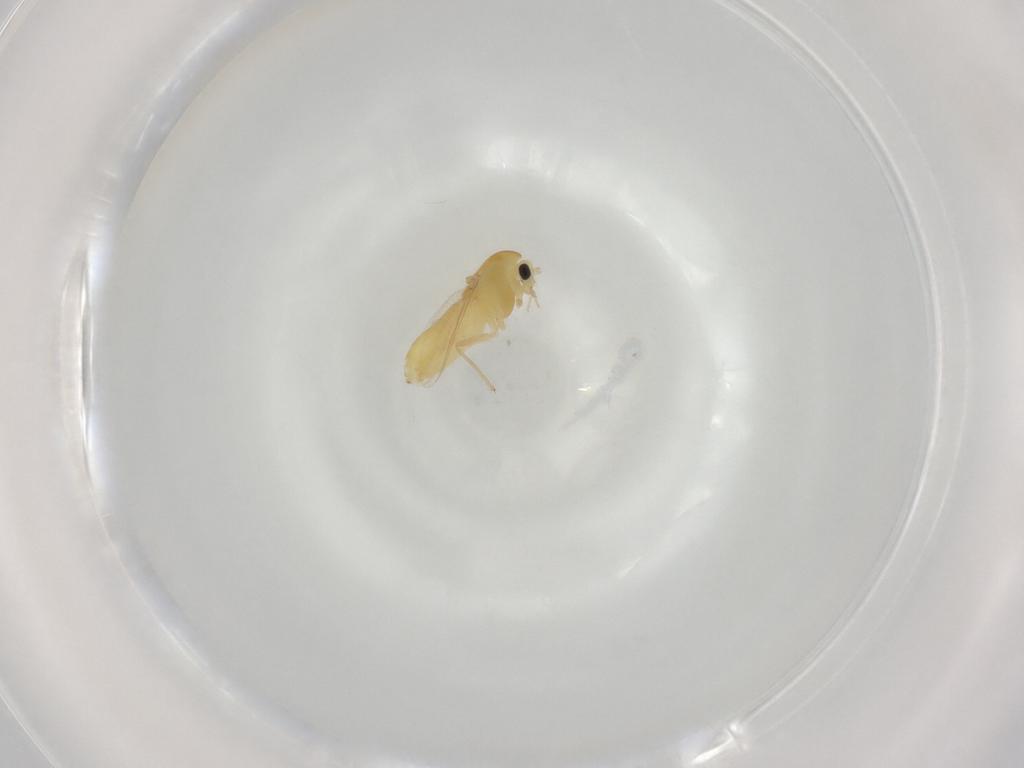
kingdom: Animalia
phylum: Arthropoda
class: Insecta
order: Diptera
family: Chironomidae
